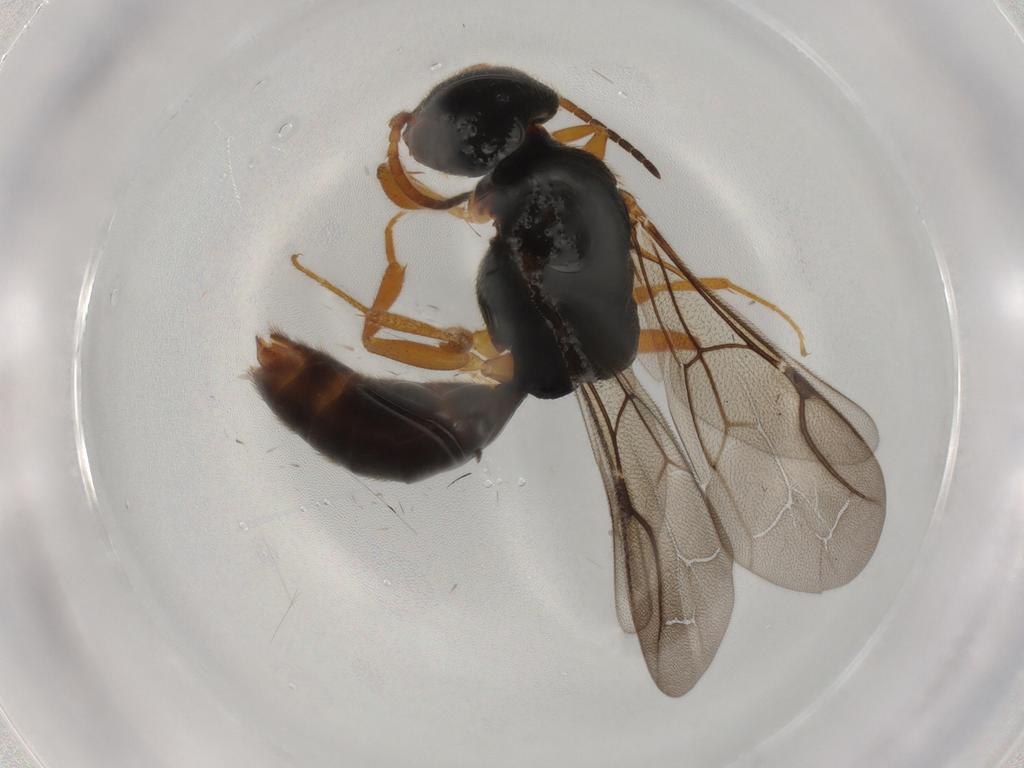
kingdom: Animalia
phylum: Arthropoda
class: Insecta
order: Hymenoptera
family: Bethylidae
